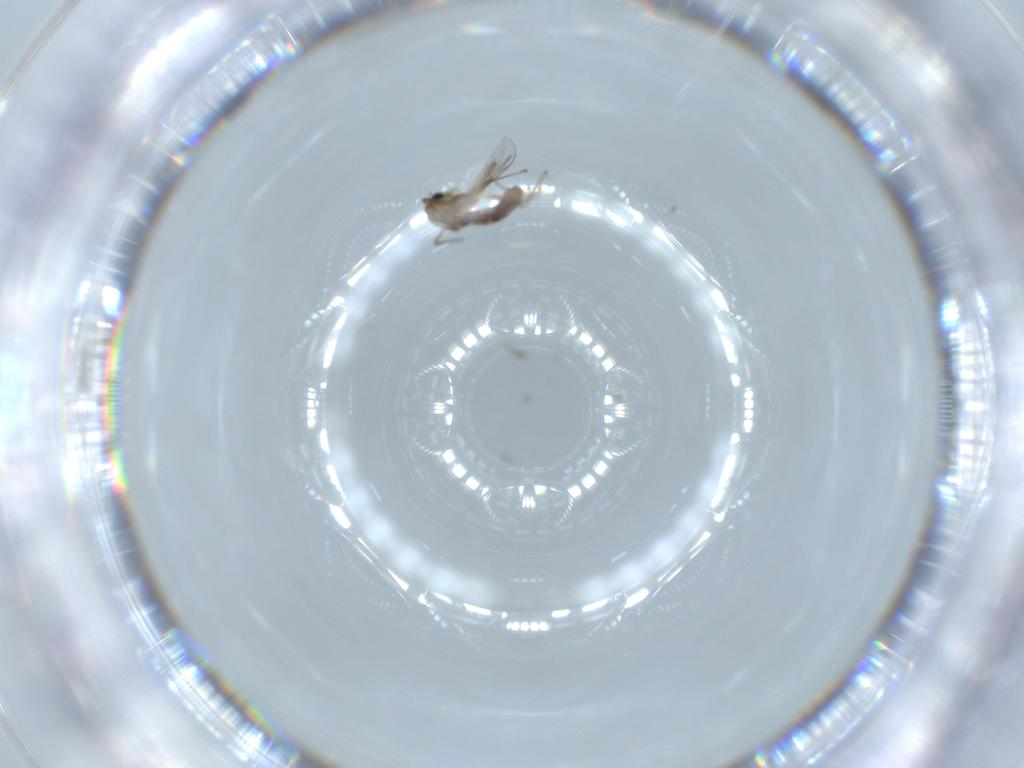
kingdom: Animalia
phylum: Arthropoda
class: Insecta
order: Diptera
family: Chironomidae
